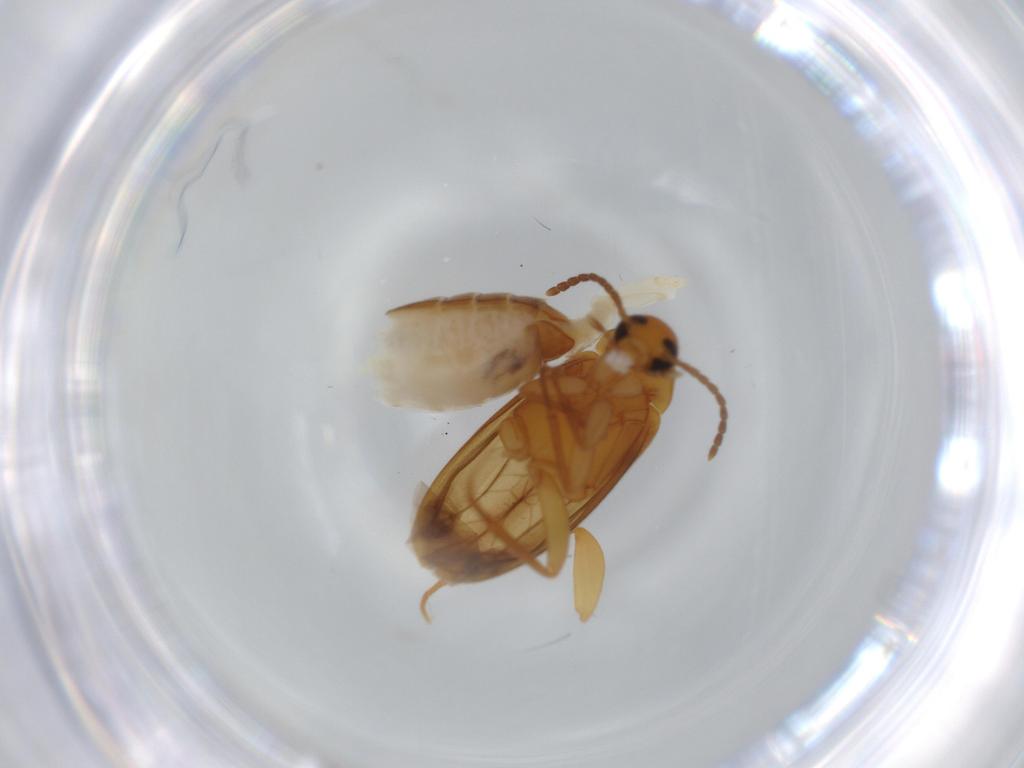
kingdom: Animalia
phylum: Arthropoda
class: Insecta
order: Coleoptera
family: Scraptiidae
